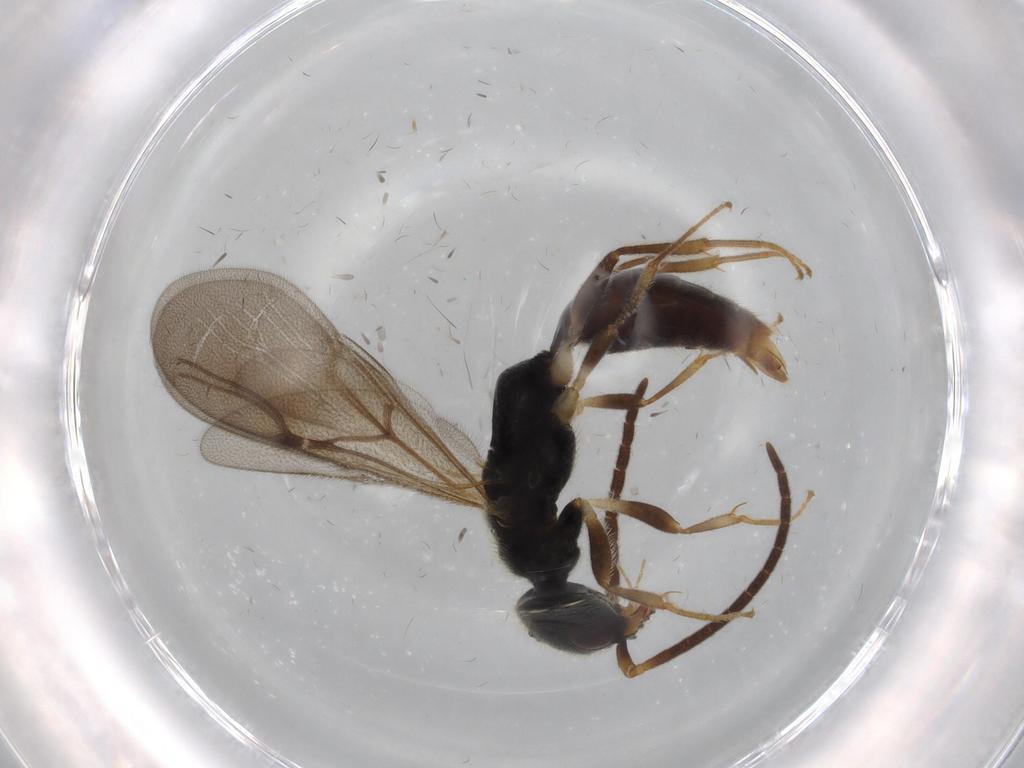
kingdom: Animalia
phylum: Arthropoda
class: Insecta
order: Hymenoptera
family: Bethylidae
